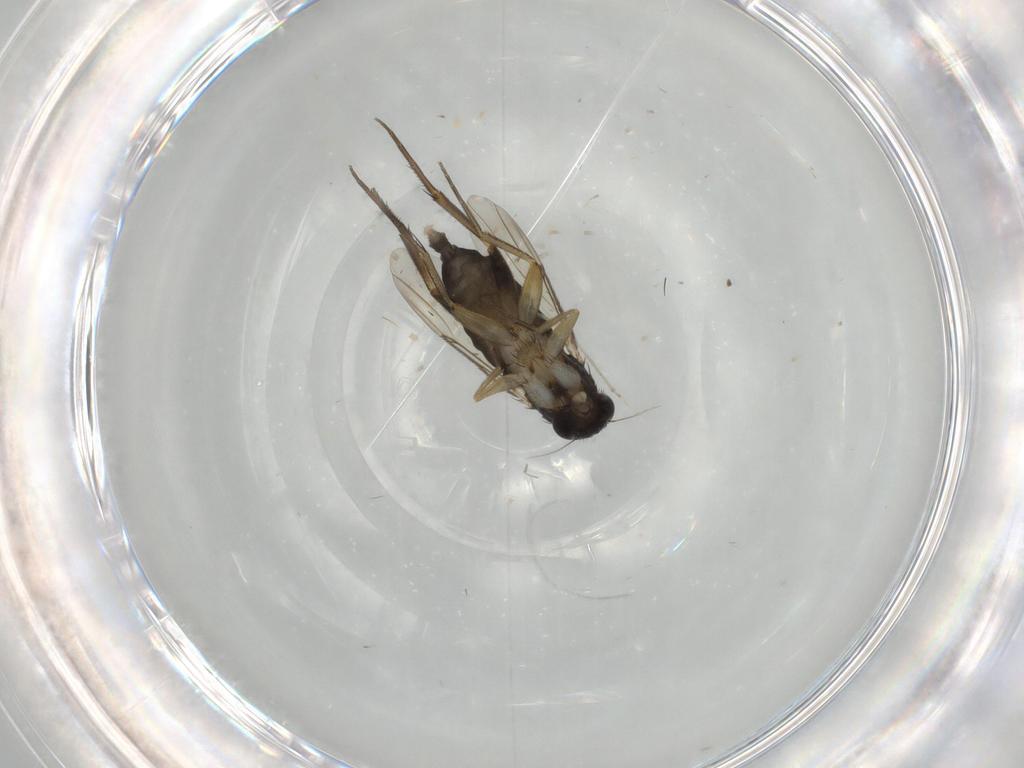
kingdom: Animalia
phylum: Arthropoda
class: Insecta
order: Diptera
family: Phoridae
